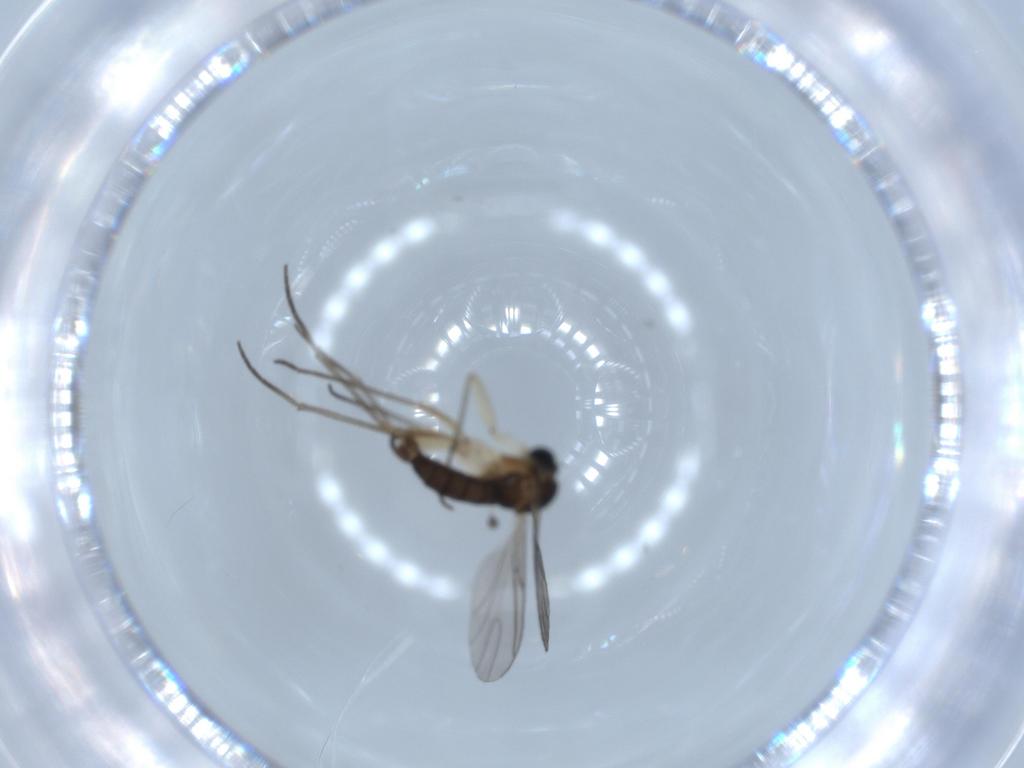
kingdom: Animalia
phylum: Arthropoda
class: Insecta
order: Diptera
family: Sciaridae
